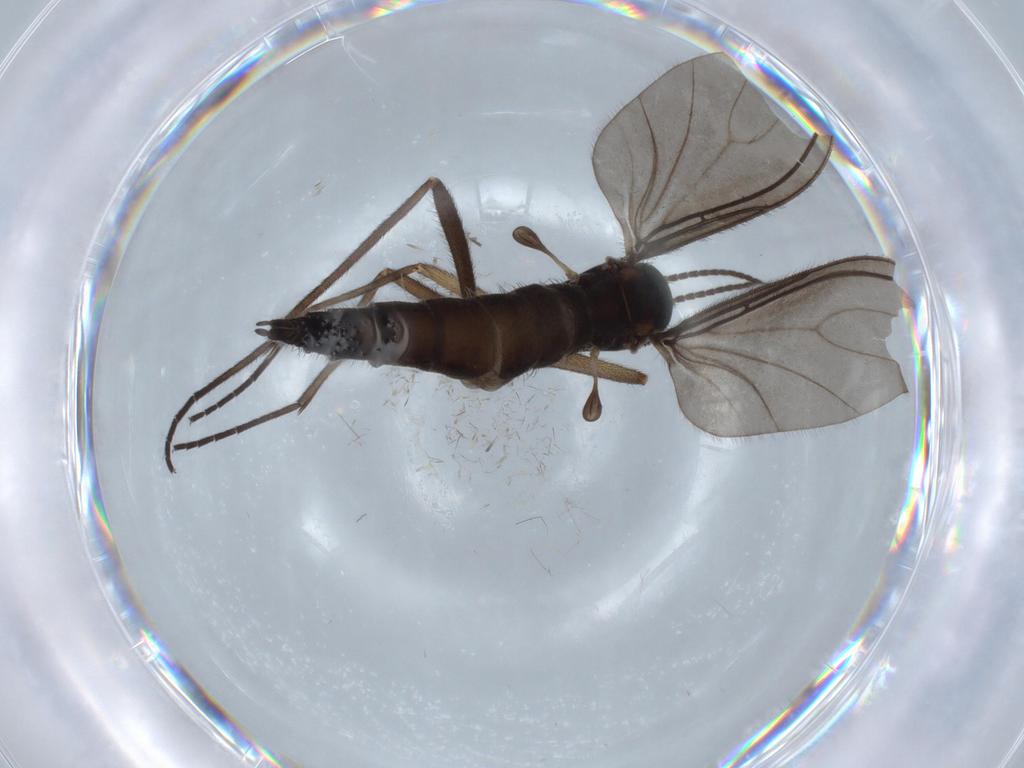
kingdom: Animalia
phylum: Arthropoda
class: Insecta
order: Diptera
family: Sciaridae
